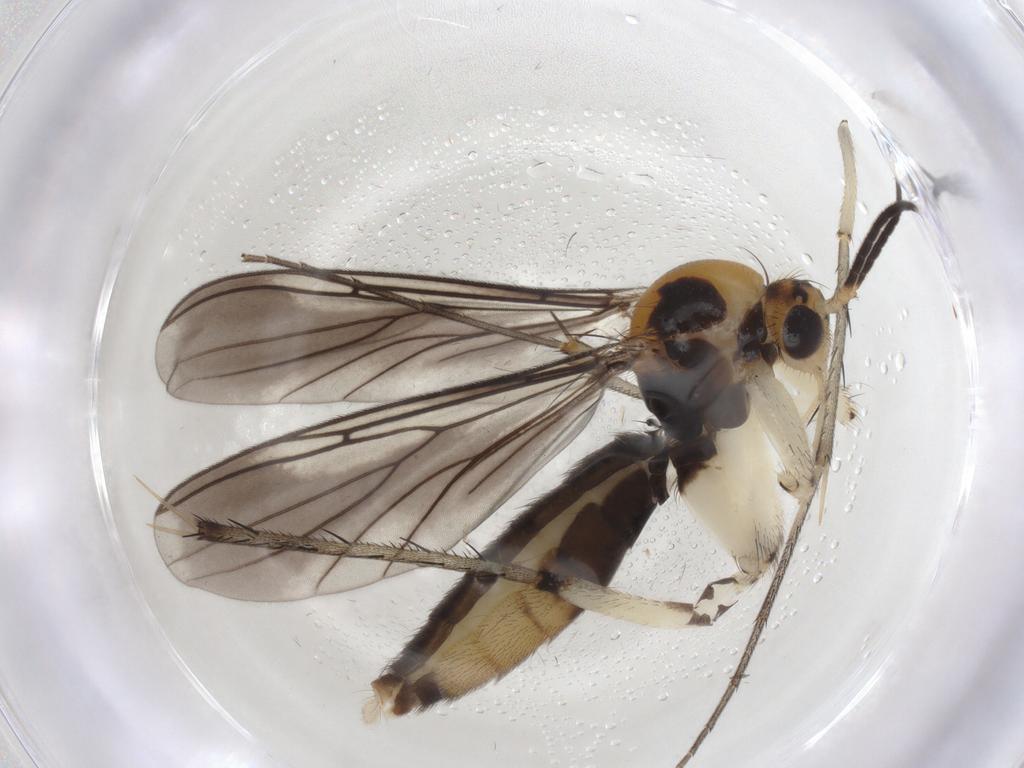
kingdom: Animalia
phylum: Arthropoda
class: Insecta
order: Diptera
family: Mycetophilidae
